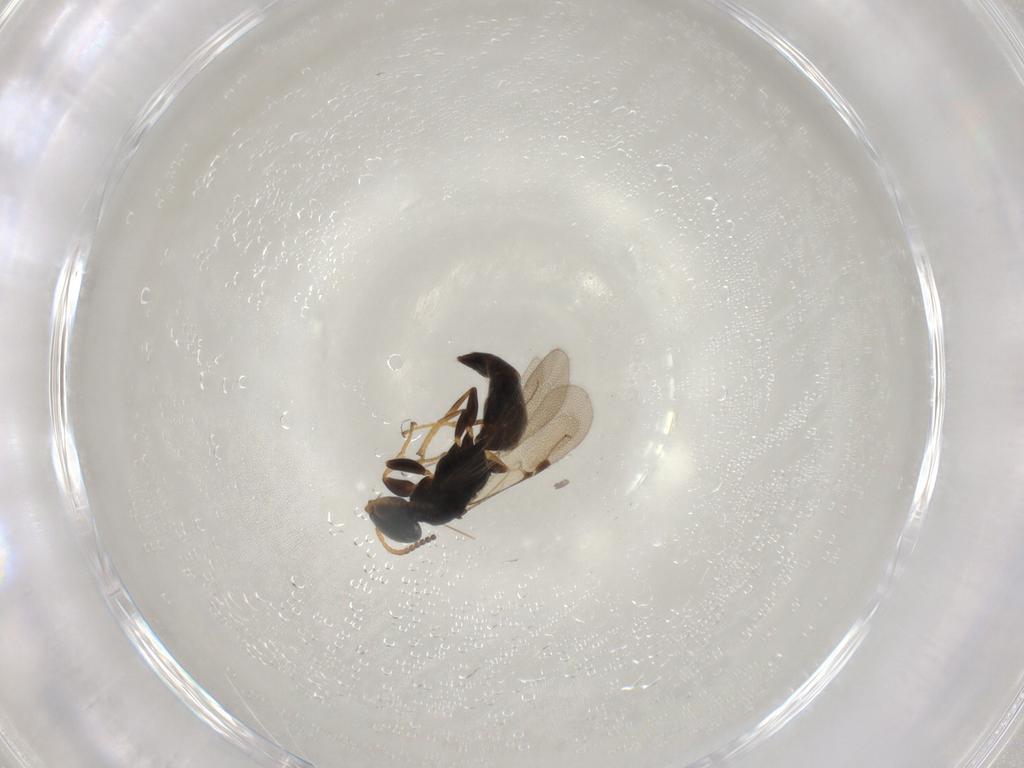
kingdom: Animalia
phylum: Arthropoda
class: Insecta
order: Hymenoptera
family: Bethylidae
